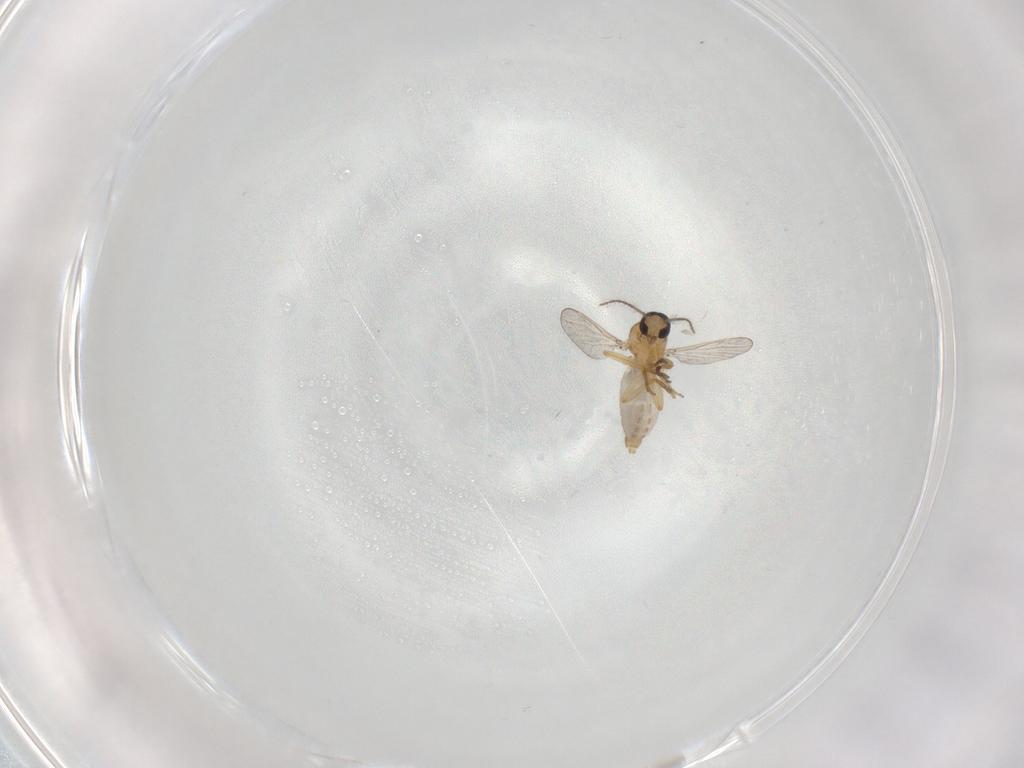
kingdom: Animalia
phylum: Arthropoda
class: Insecta
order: Diptera
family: Ceratopogonidae
